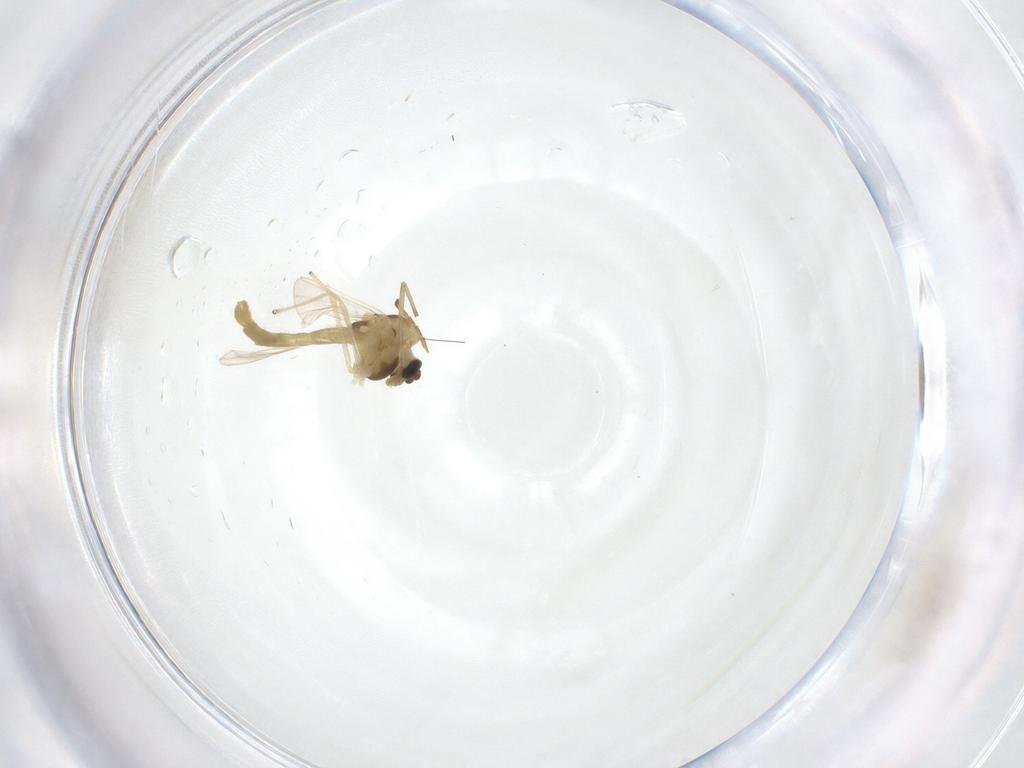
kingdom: Animalia
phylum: Arthropoda
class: Insecta
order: Diptera
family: Chironomidae
